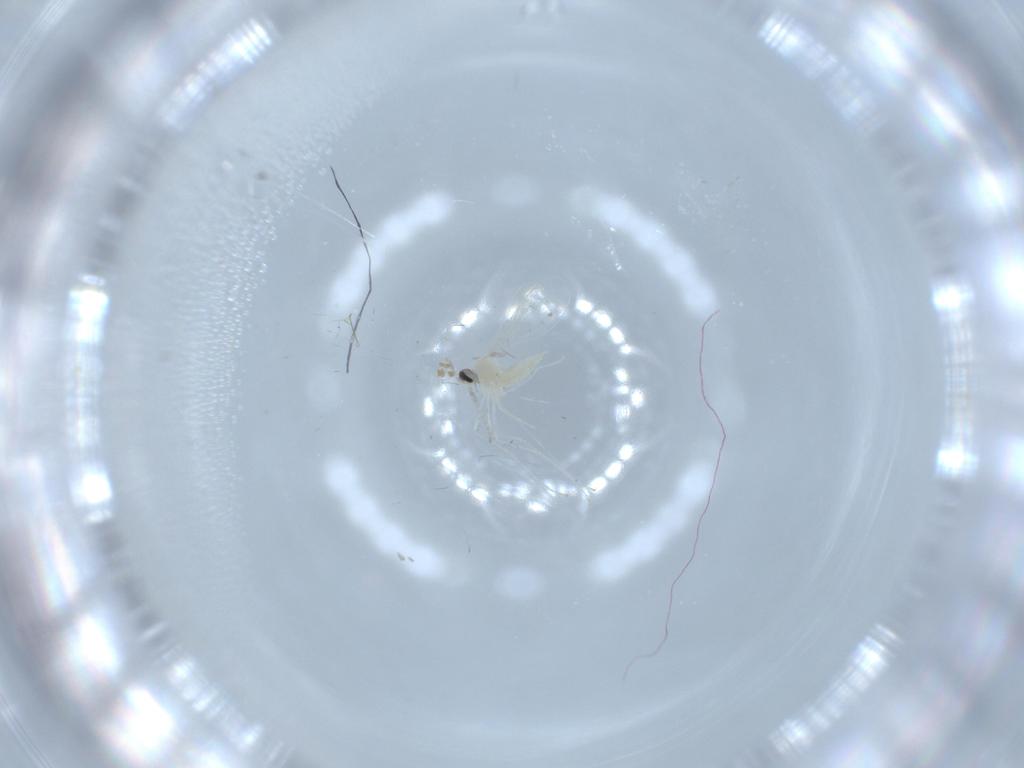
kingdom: Animalia
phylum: Arthropoda
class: Insecta
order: Diptera
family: Cecidomyiidae
